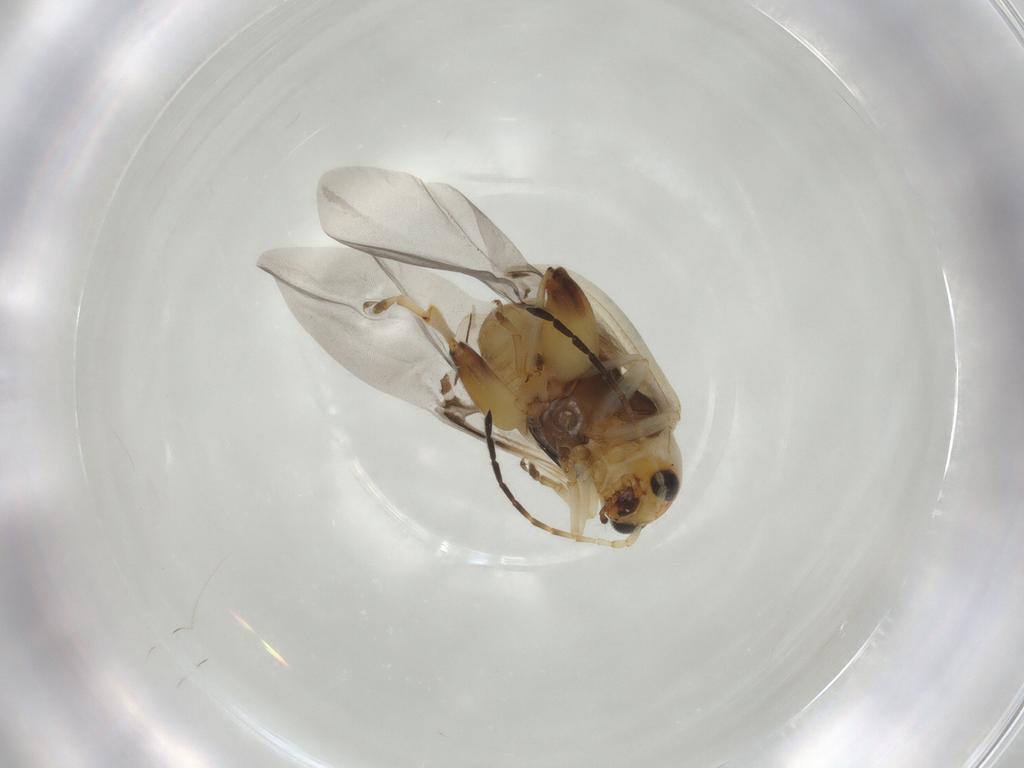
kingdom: Animalia
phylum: Arthropoda
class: Insecta
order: Coleoptera
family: Chrysomelidae
